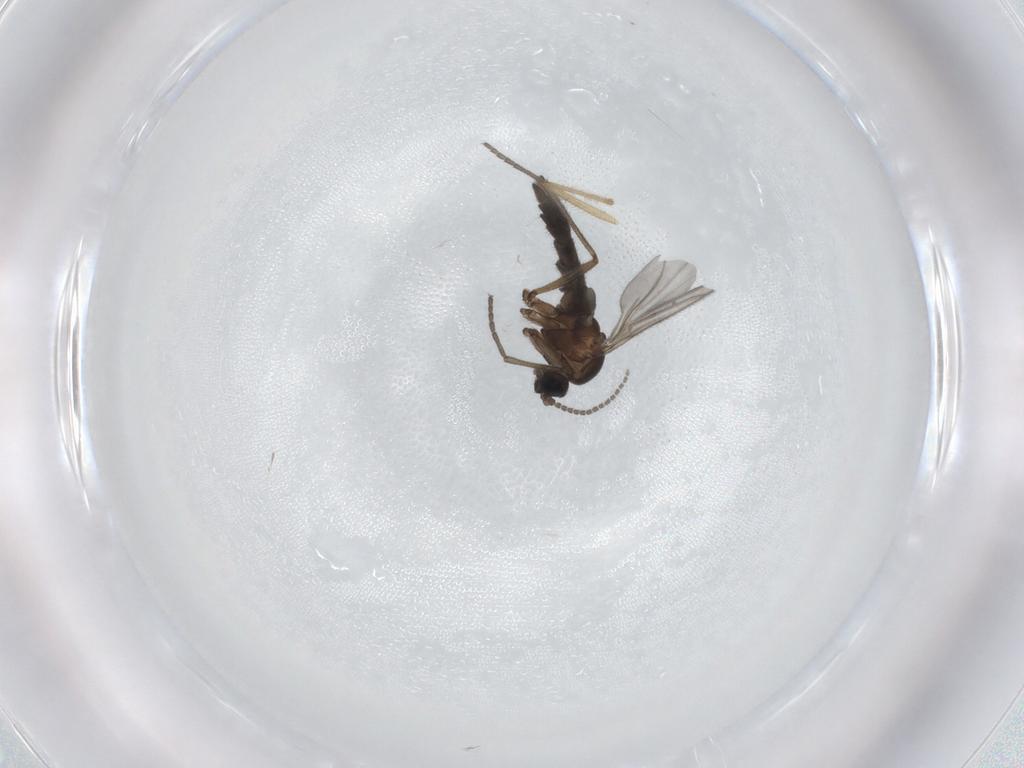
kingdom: Animalia
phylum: Arthropoda
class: Insecta
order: Diptera
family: Sciaridae
